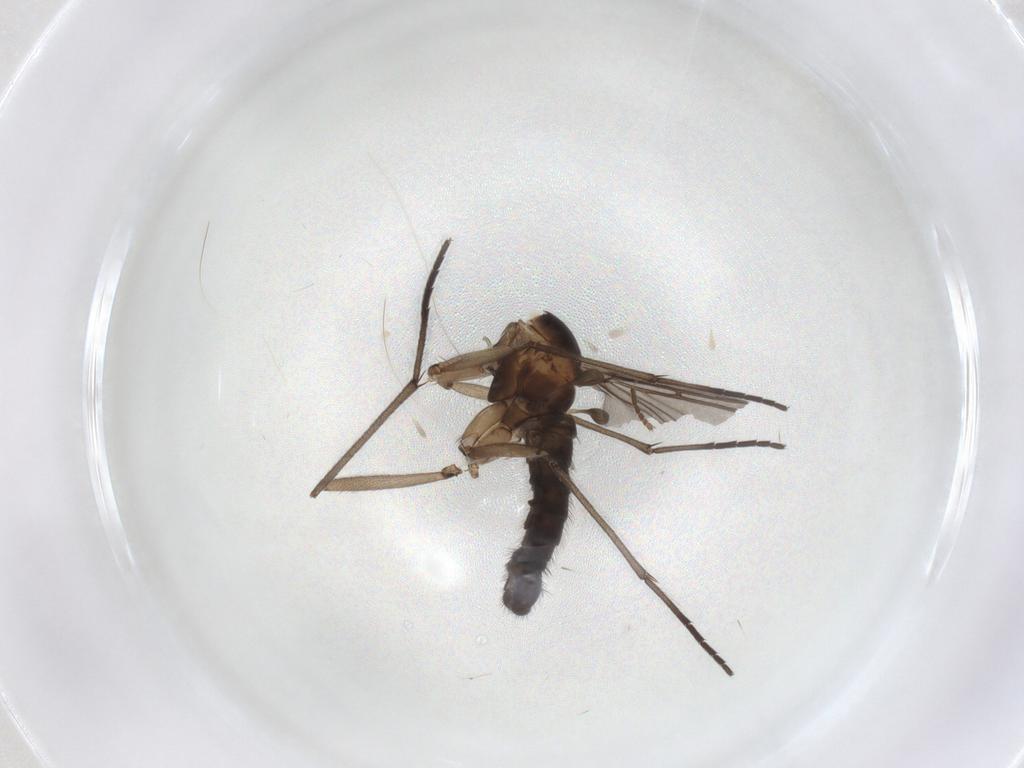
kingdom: Animalia
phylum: Arthropoda
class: Insecta
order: Diptera
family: Sciaridae
